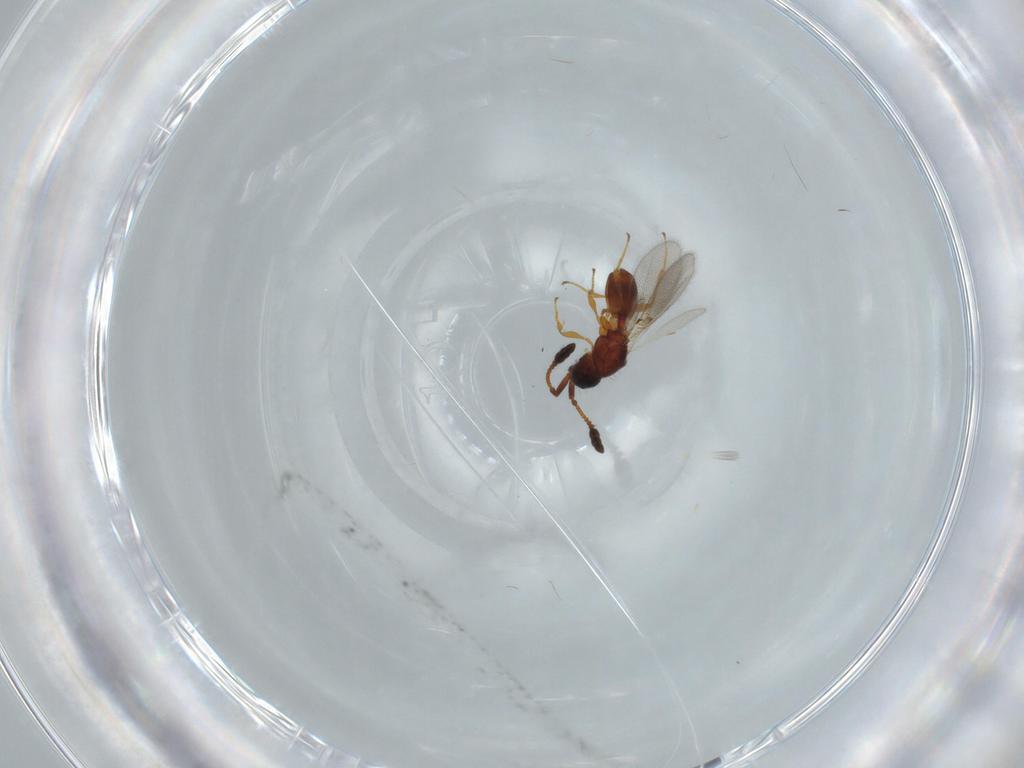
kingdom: Animalia
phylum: Arthropoda
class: Insecta
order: Hymenoptera
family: Diapriidae
